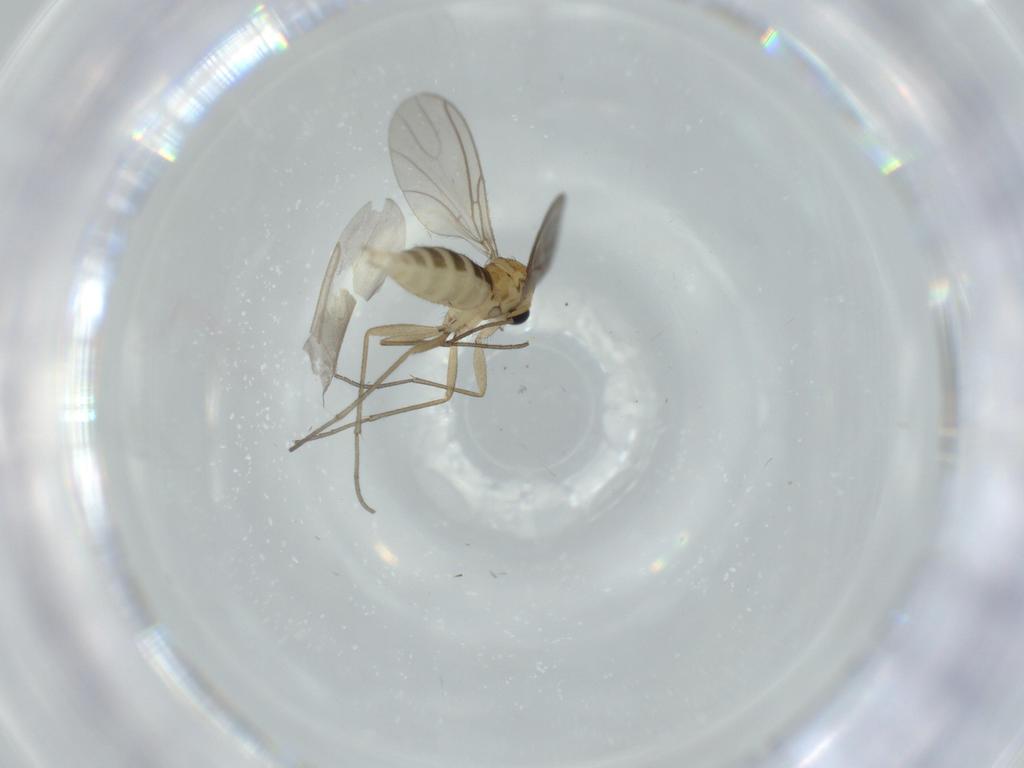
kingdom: Animalia
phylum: Arthropoda
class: Insecta
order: Diptera
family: Sciaridae
